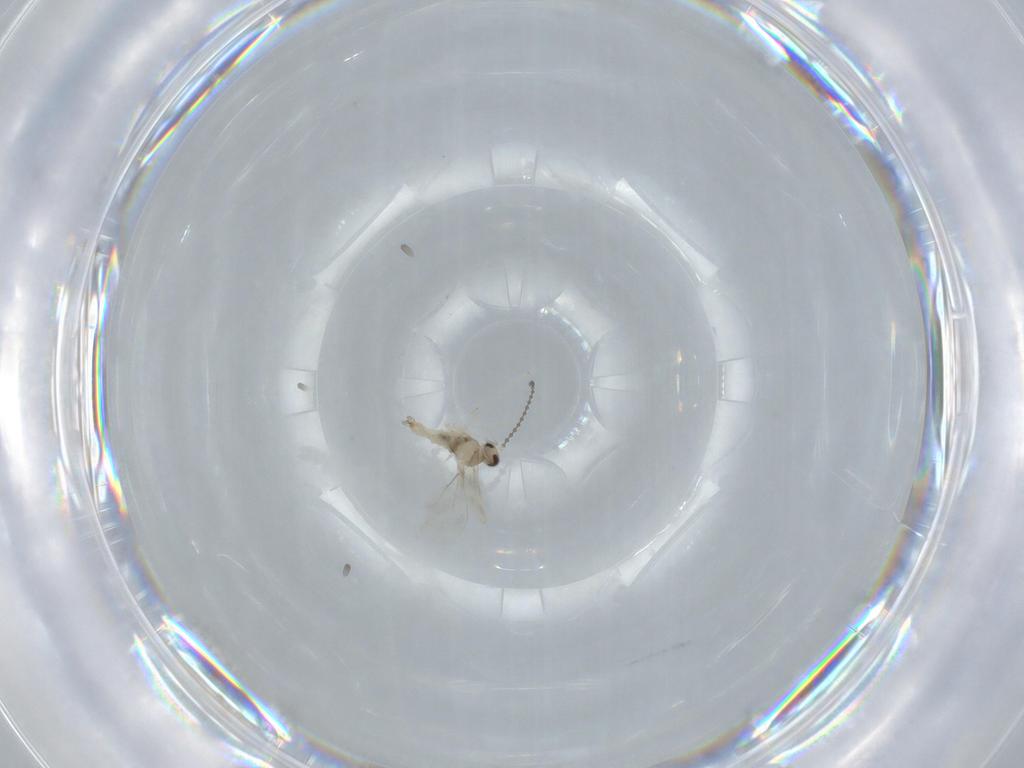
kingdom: Animalia
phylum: Arthropoda
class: Insecta
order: Diptera
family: Cecidomyiidae
